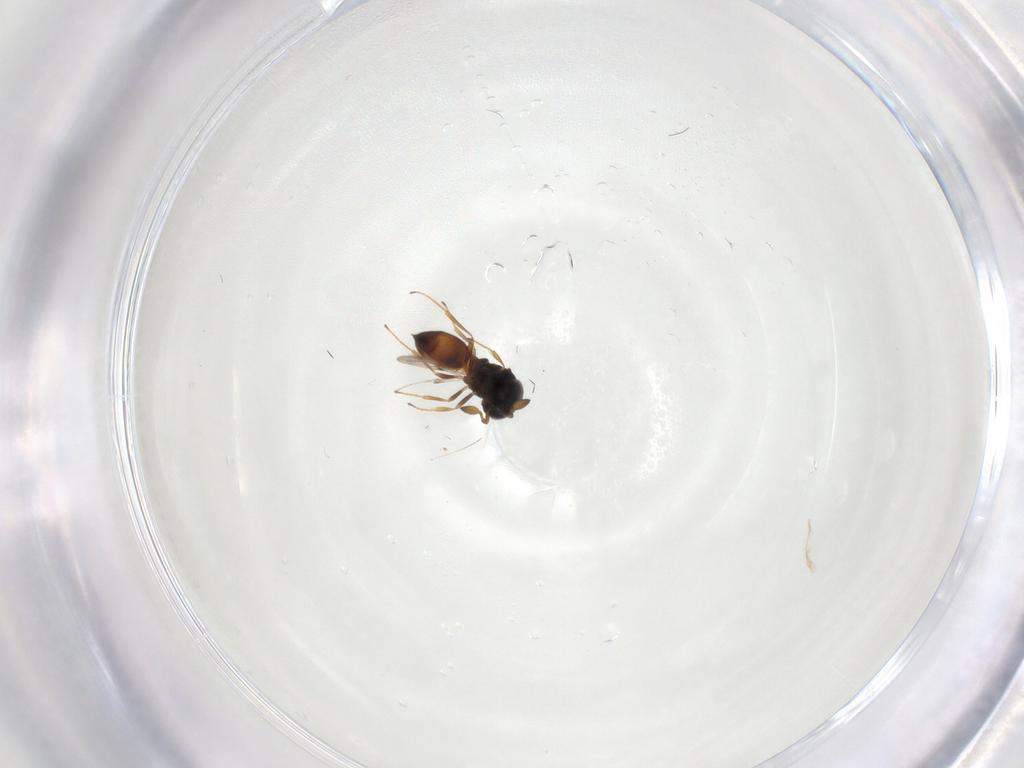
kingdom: Animalia
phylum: Arthropoda
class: Insecta
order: Hymenoptera
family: Scelionidae
